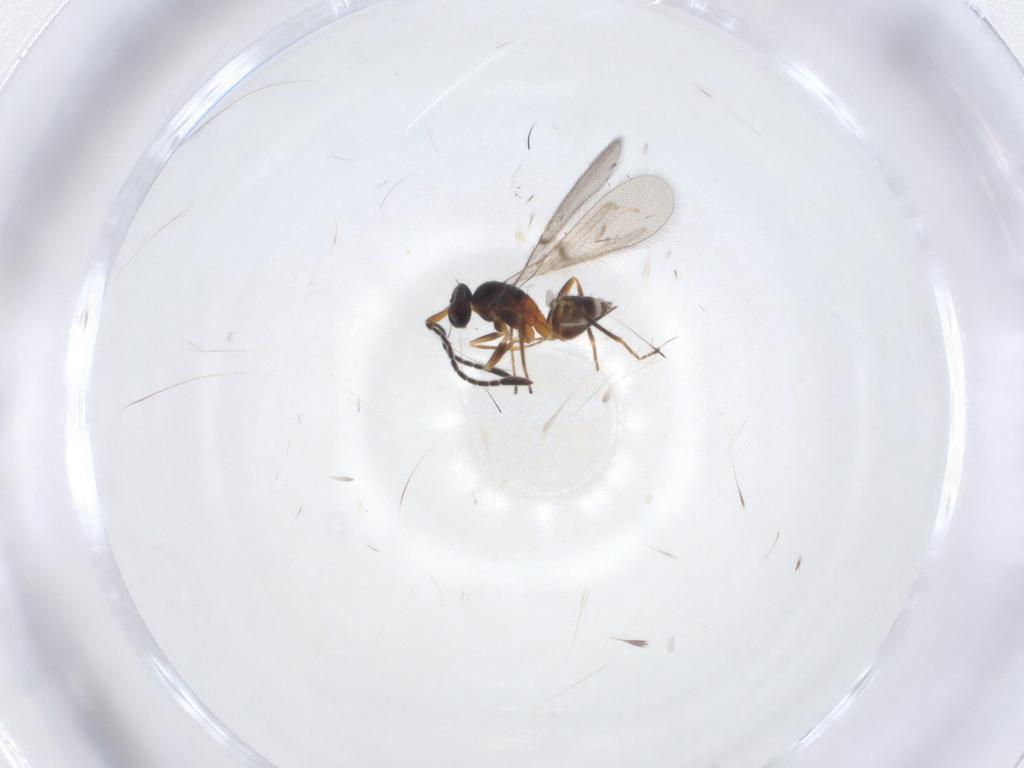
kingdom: Animalia
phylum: Arthropoda
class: Insecta
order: Hymenoptera
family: Mymaridae
